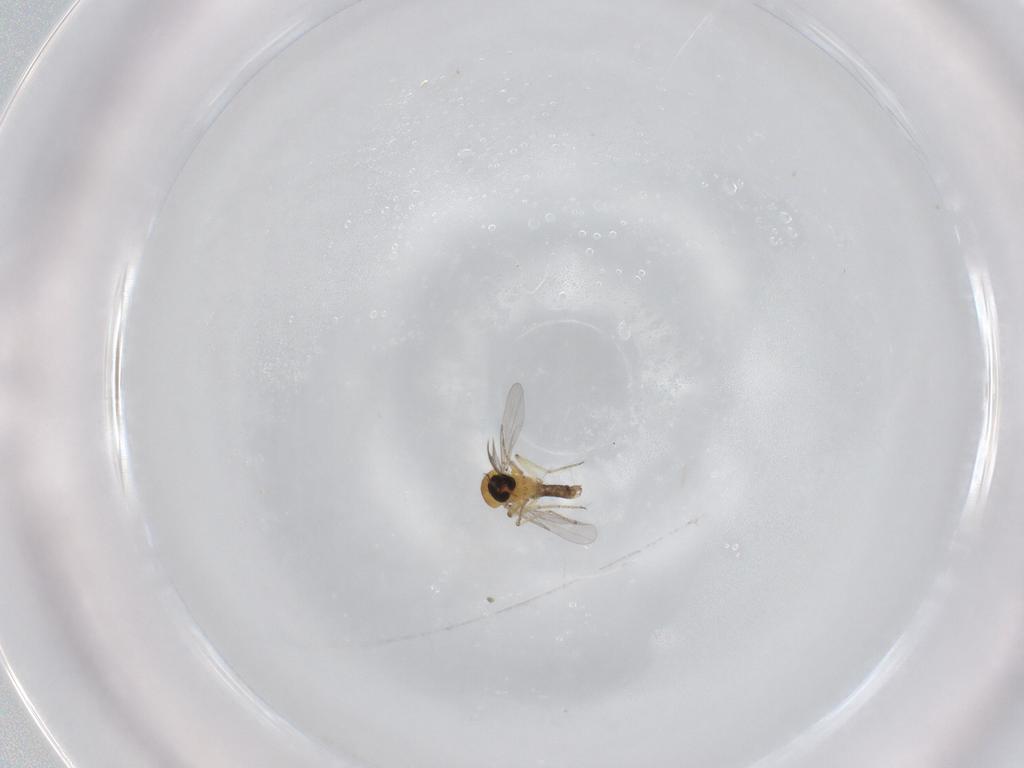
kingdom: Animalia
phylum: Arthropoda
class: Insecta
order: Diptera
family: Ceratopogonidae
